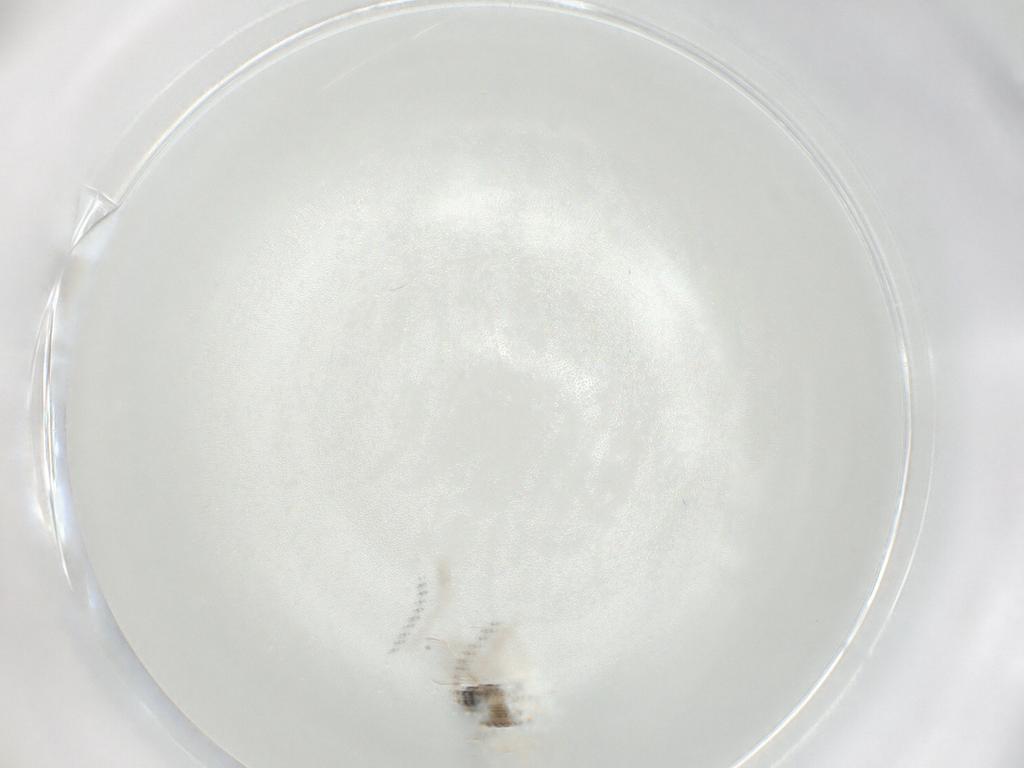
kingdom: Animalia
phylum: Arthropoda
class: Insecta
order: Diptera
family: Cecidomyiidae
